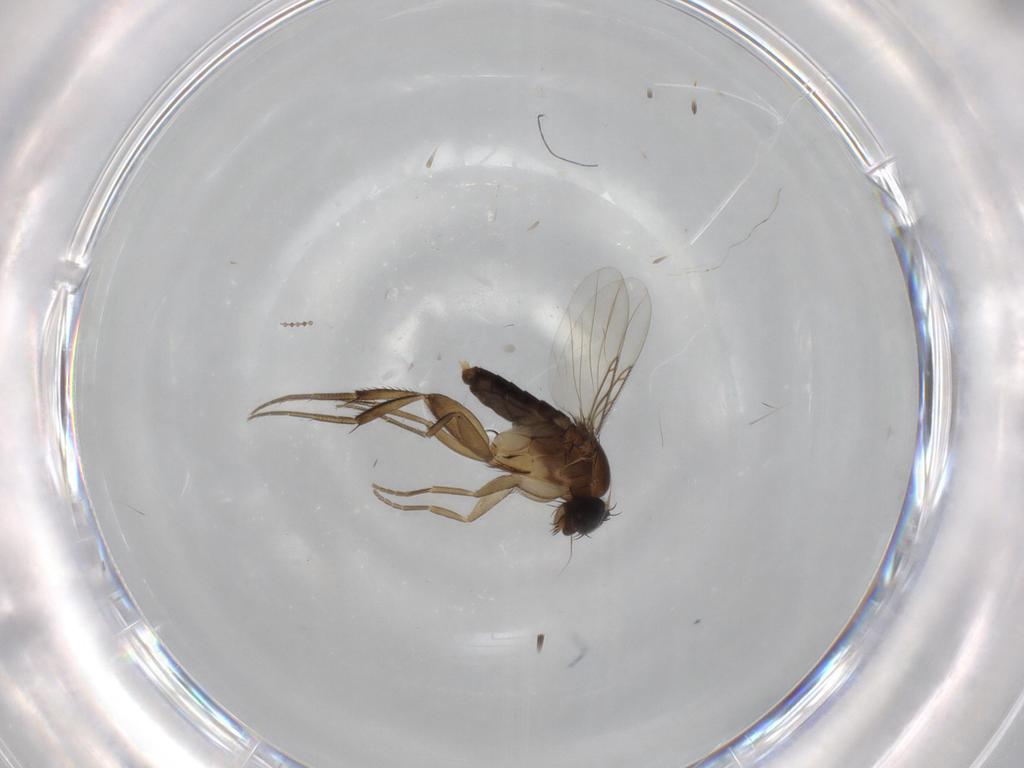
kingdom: Animalia
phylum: Arthropoda
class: Insecta
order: Diptera
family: Cecidomyiidae
